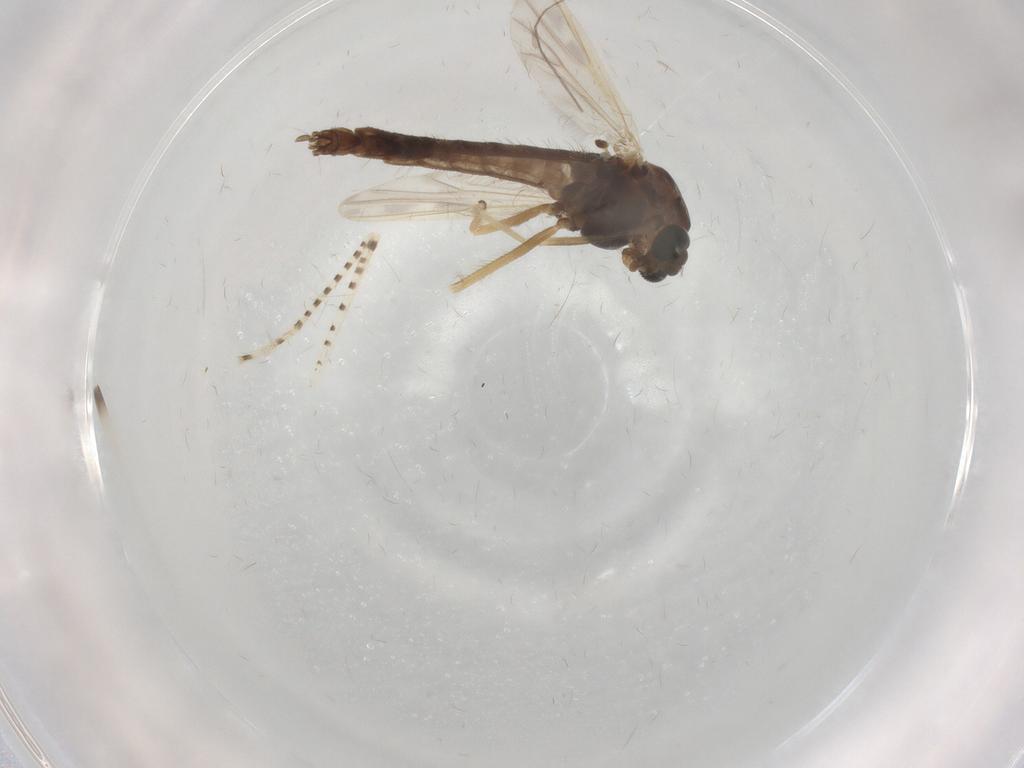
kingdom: Animalia
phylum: Arthropoda
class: Insecta
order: Diptera
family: Chironomidae
